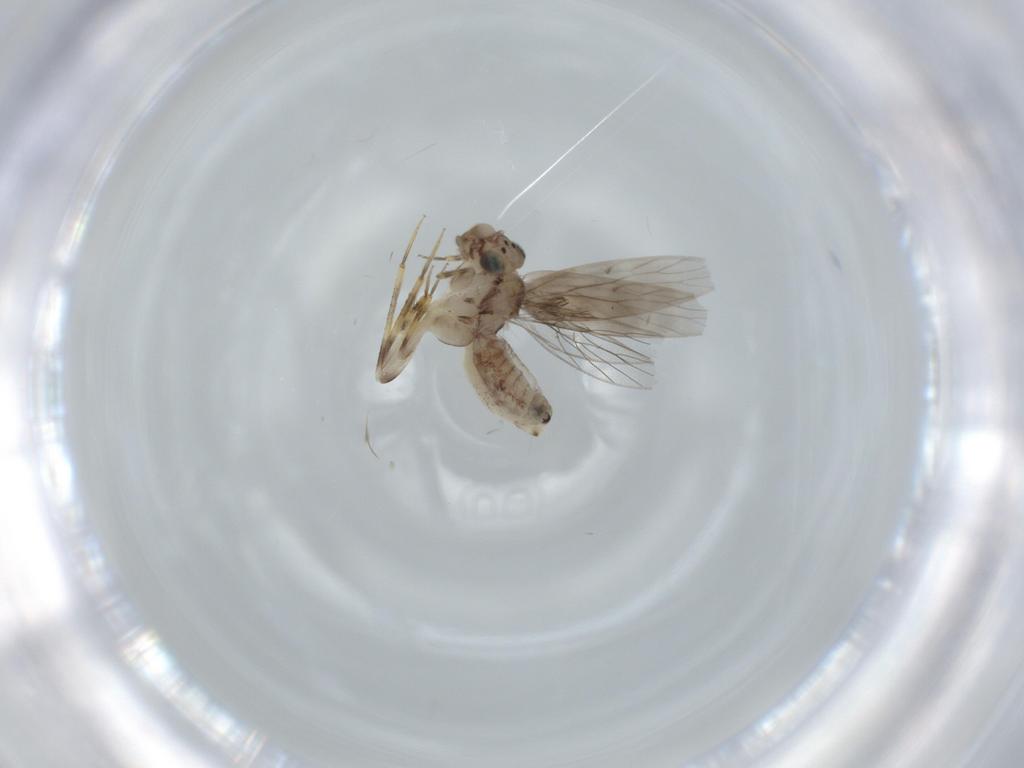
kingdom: Animalia
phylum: Arthropoda
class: Insecta
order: Psocodea
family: Lepidopsocidae
